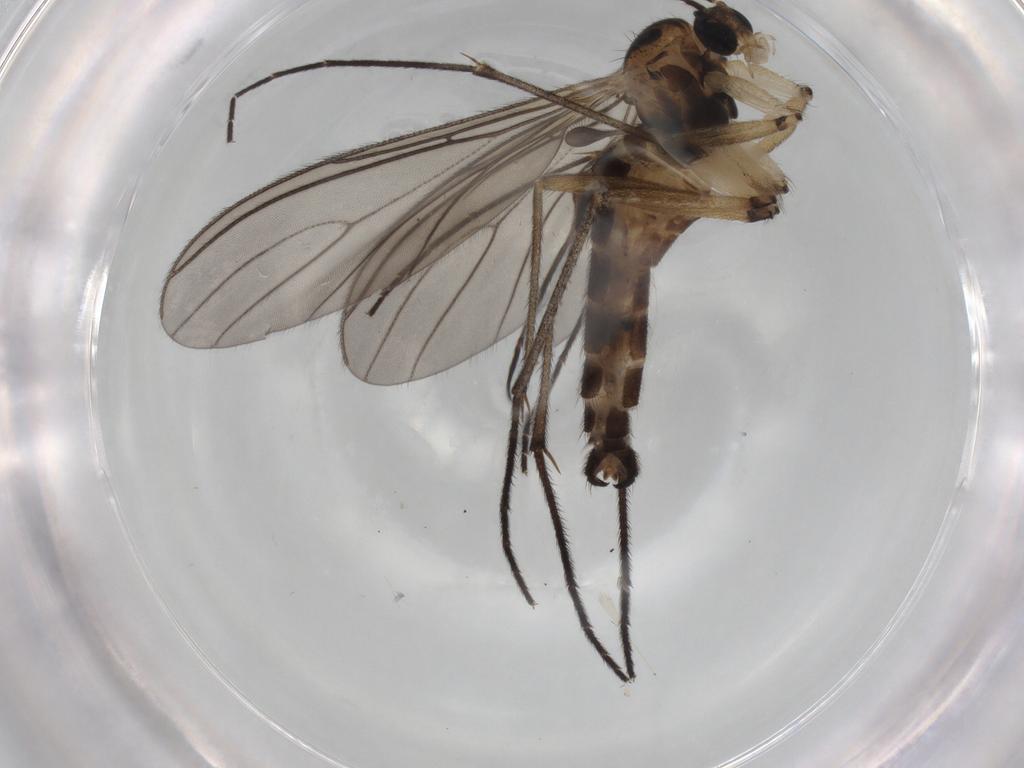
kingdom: Animalia
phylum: Arthropoda
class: Insecta
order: Diptera
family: Sciaridae
